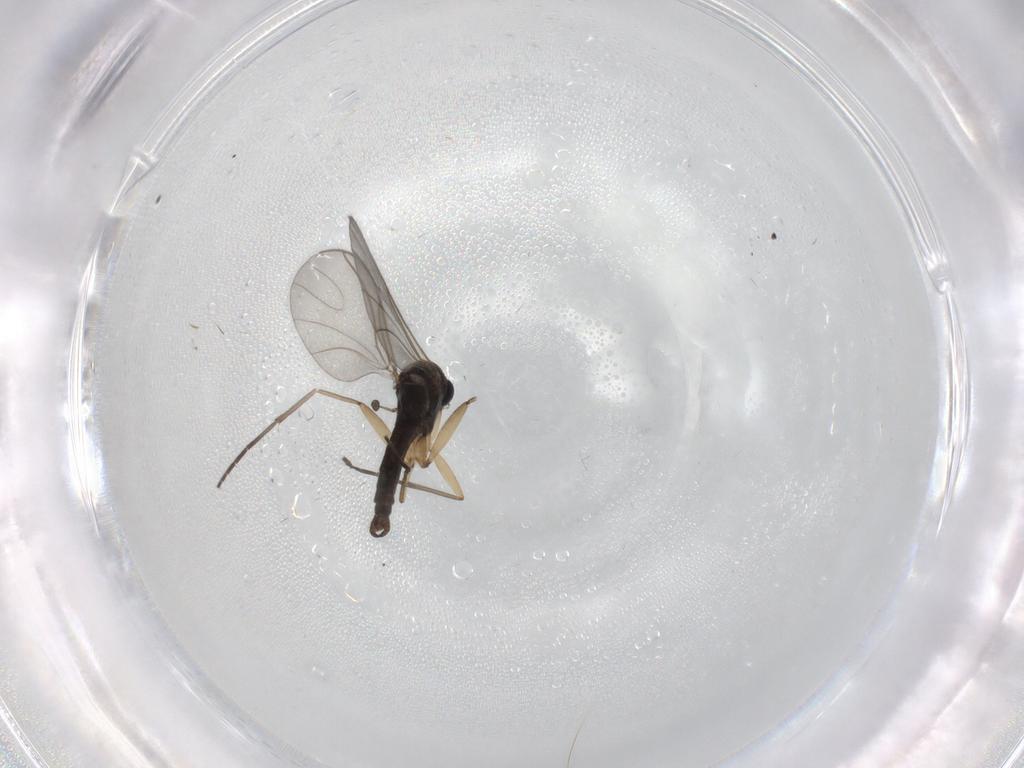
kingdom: Animalia
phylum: Arthropoda
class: Insecta
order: Diptera
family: Sciaridae
